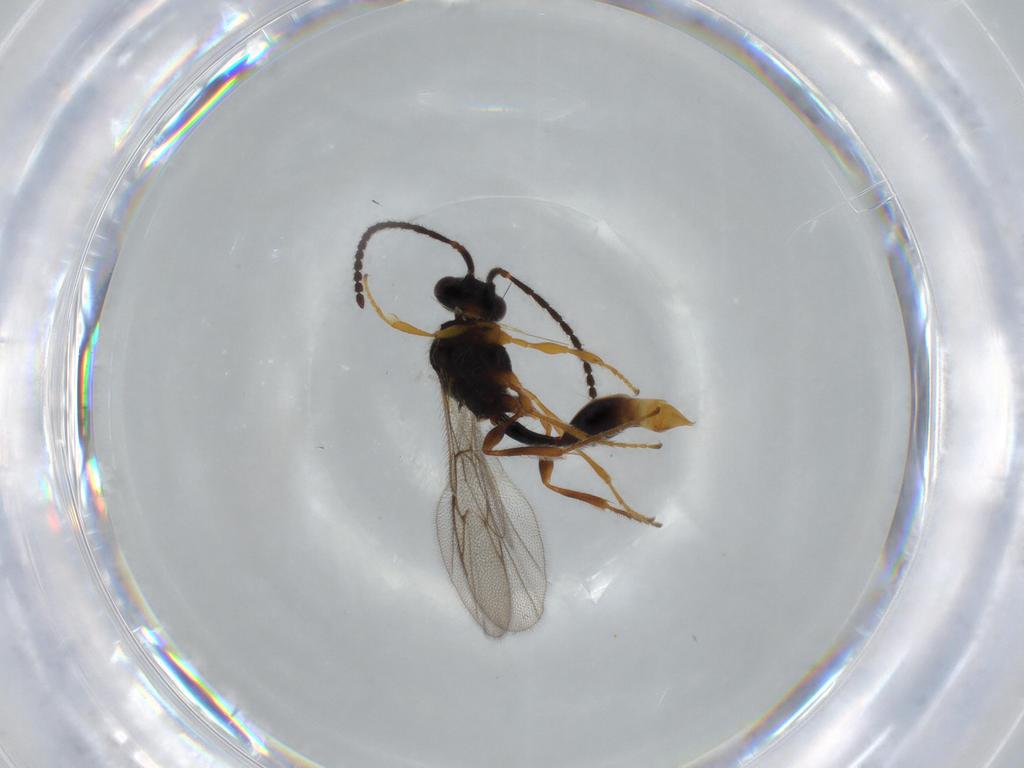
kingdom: Animalia
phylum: Arthropoda
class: Insecta
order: Hymenoptera
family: Diapriidae
